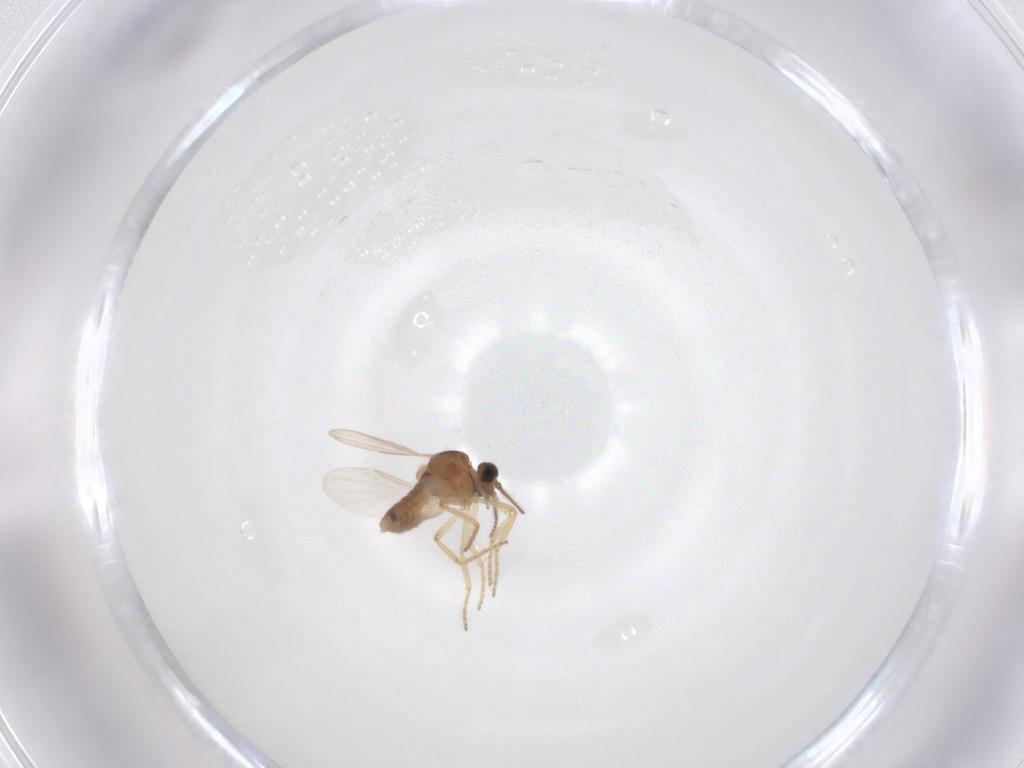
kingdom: Animalia
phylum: Arthropoda
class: Insecta
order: Diptera
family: Ceratopogonidae
